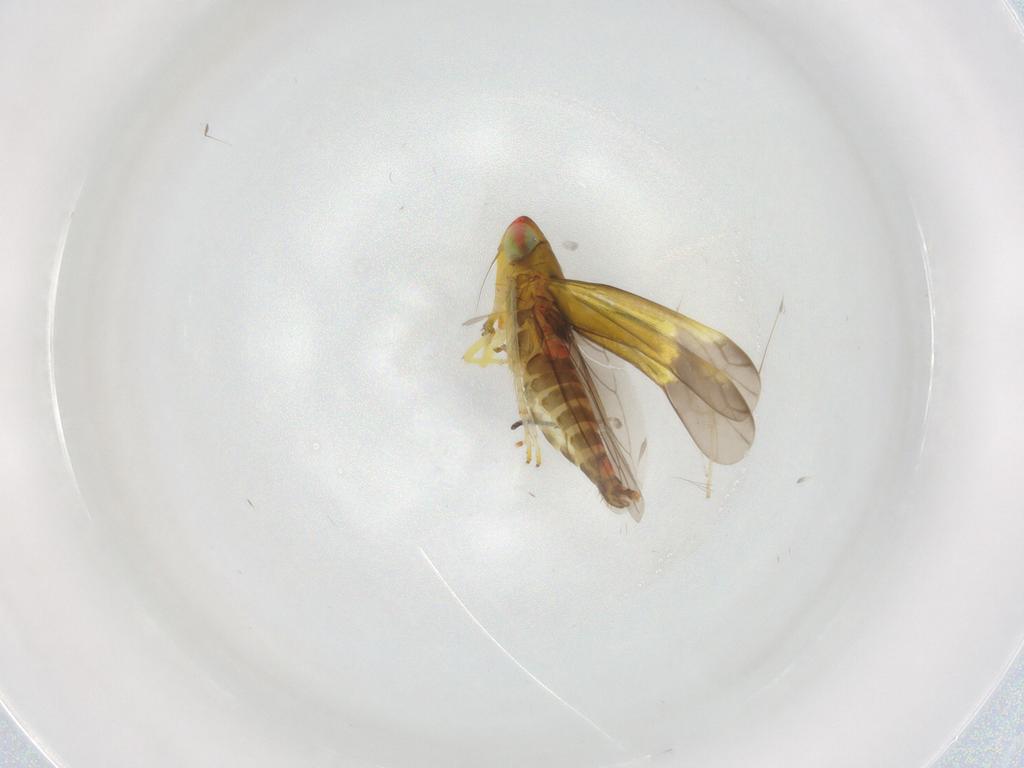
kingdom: Animalia
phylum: Arthropoda
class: Insecta
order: Hemiptera
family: Cicadellidae
